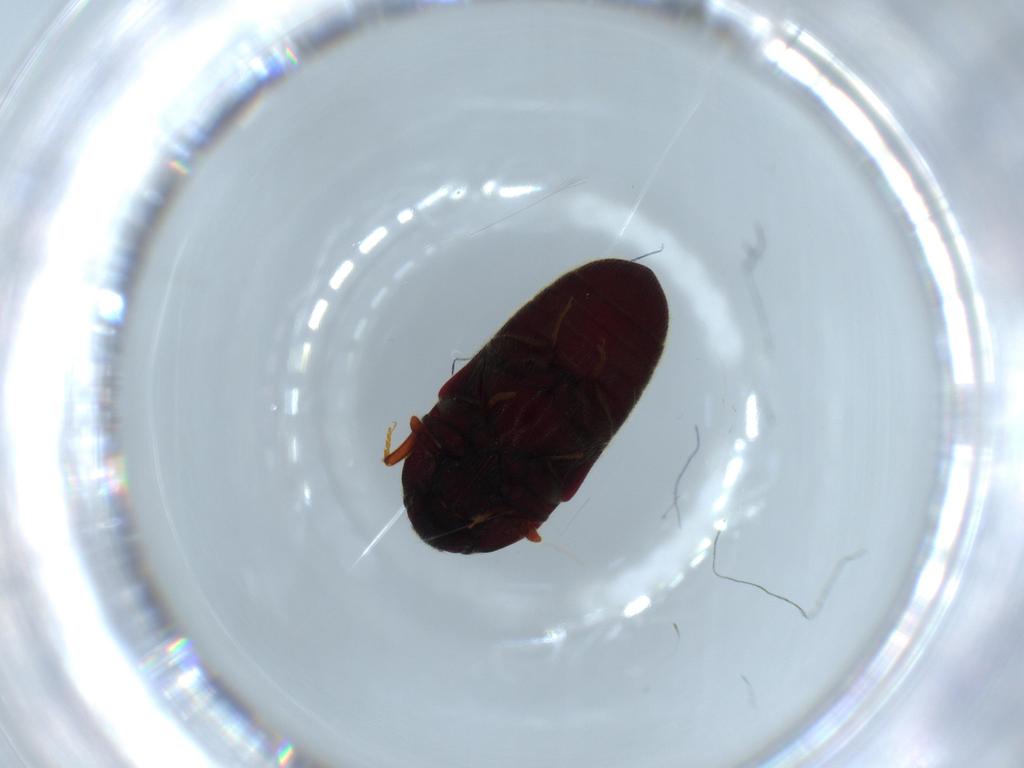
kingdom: Animalia
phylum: Arthropoda
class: Insecta
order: Coleoptera
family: Throscidae
